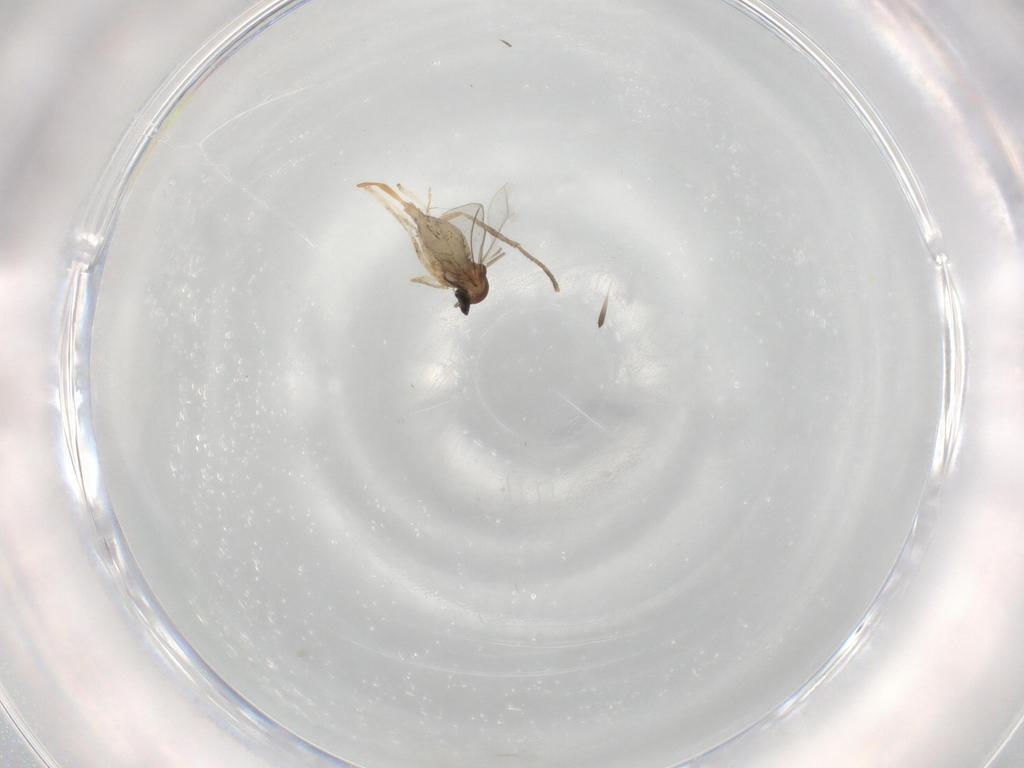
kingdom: Animalia
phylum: Arthropoda
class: Insecta
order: Diptera
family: Cecidomyiidae
